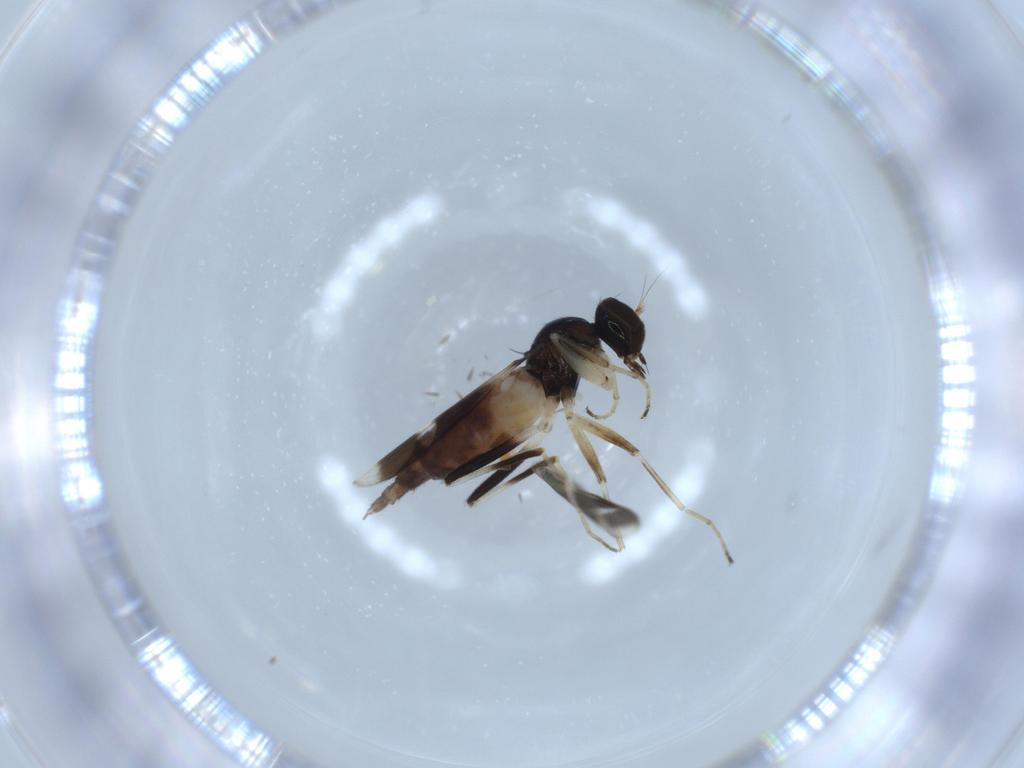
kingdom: Animalia
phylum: Arthropoda
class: Insecta
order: Diptera
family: Hybotidae
